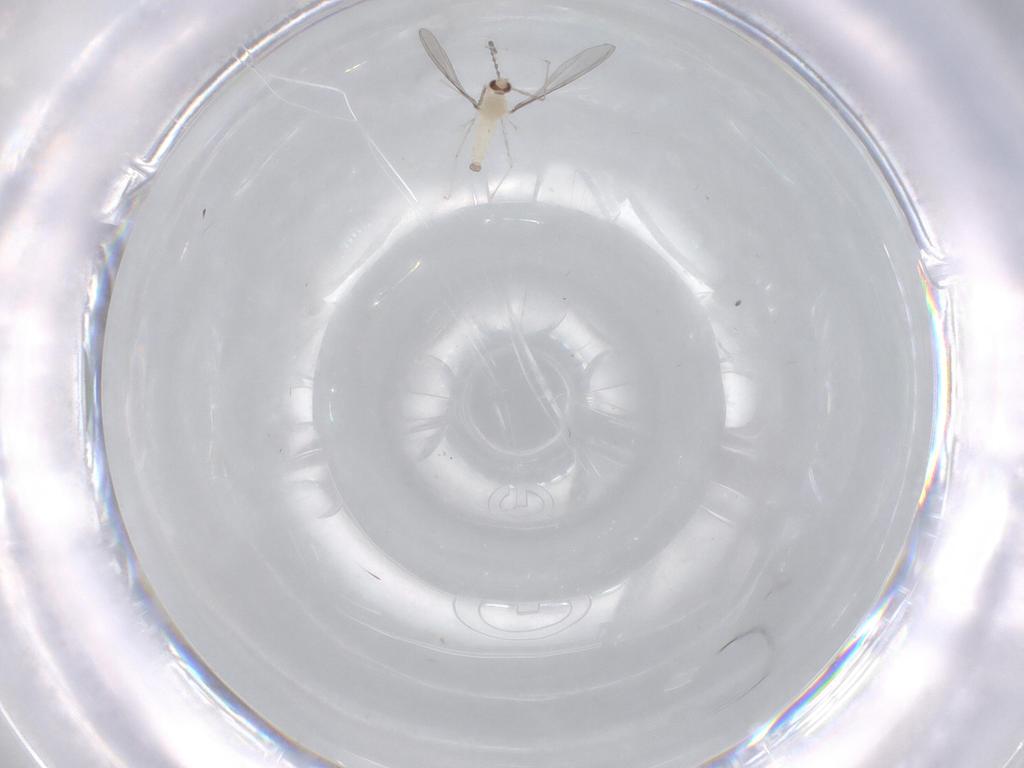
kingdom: Animalia
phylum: Arthropoda
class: Insecta
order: Diptera
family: Cecidomyiidae
